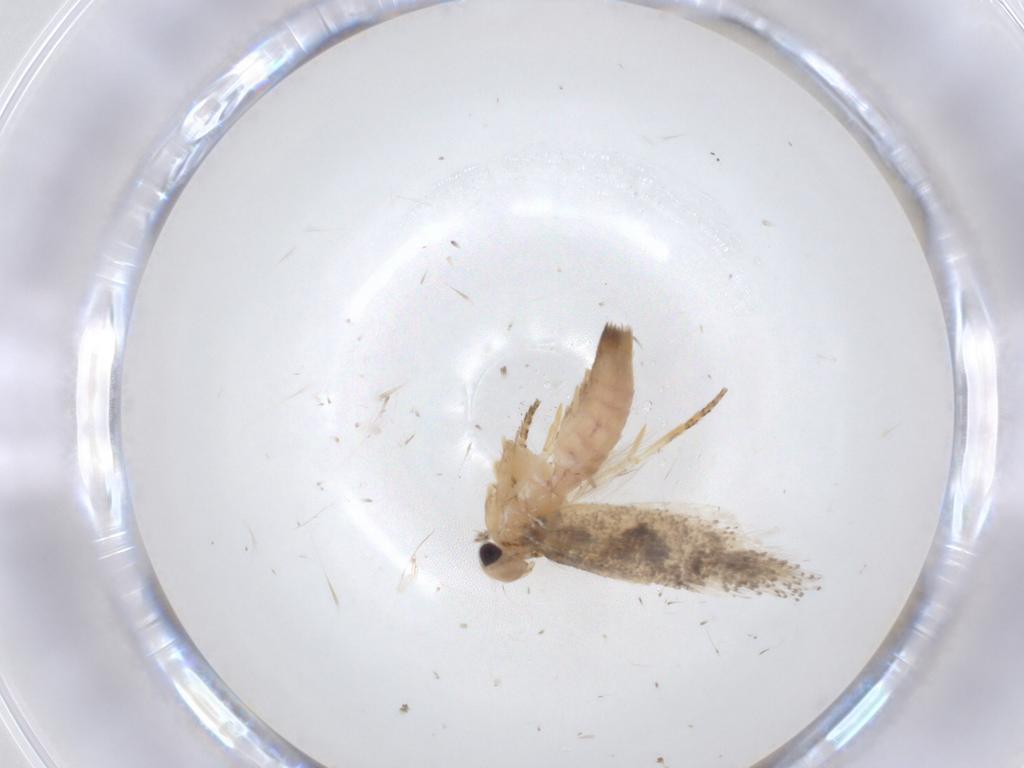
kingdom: Animalia
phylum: Arthropoda
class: Insecta
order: Lepidoptera
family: Gelechiidae
